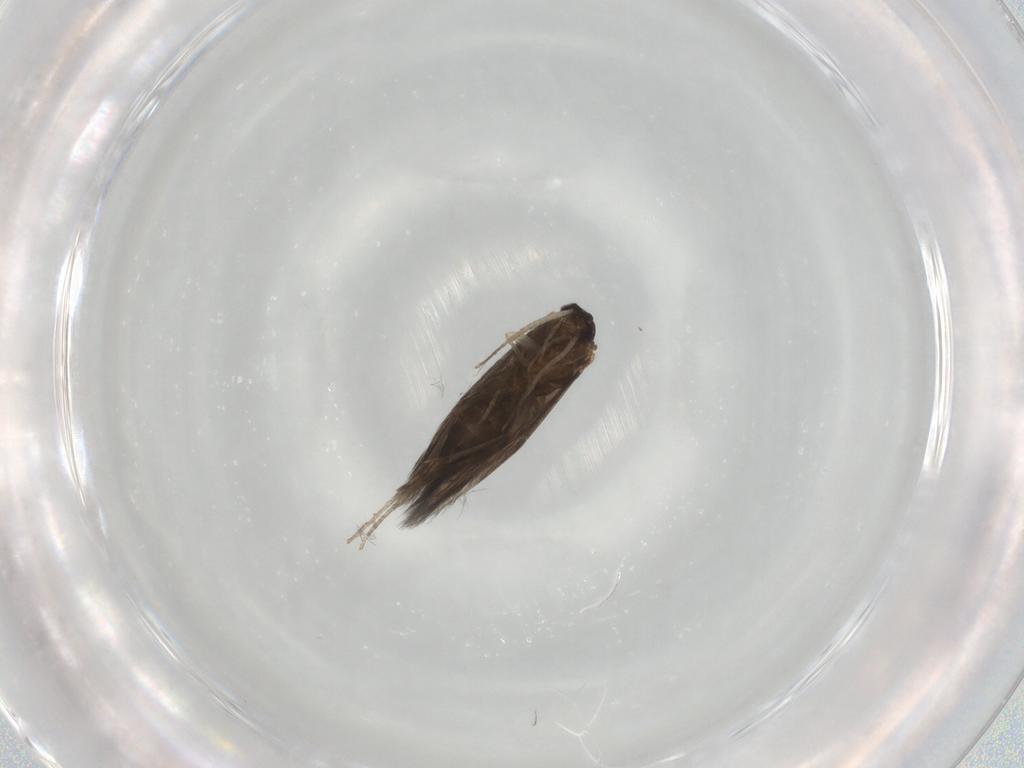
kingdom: Animalia
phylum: Arthropoda
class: Insecta
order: Trichoptera
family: Hydroptilidae
